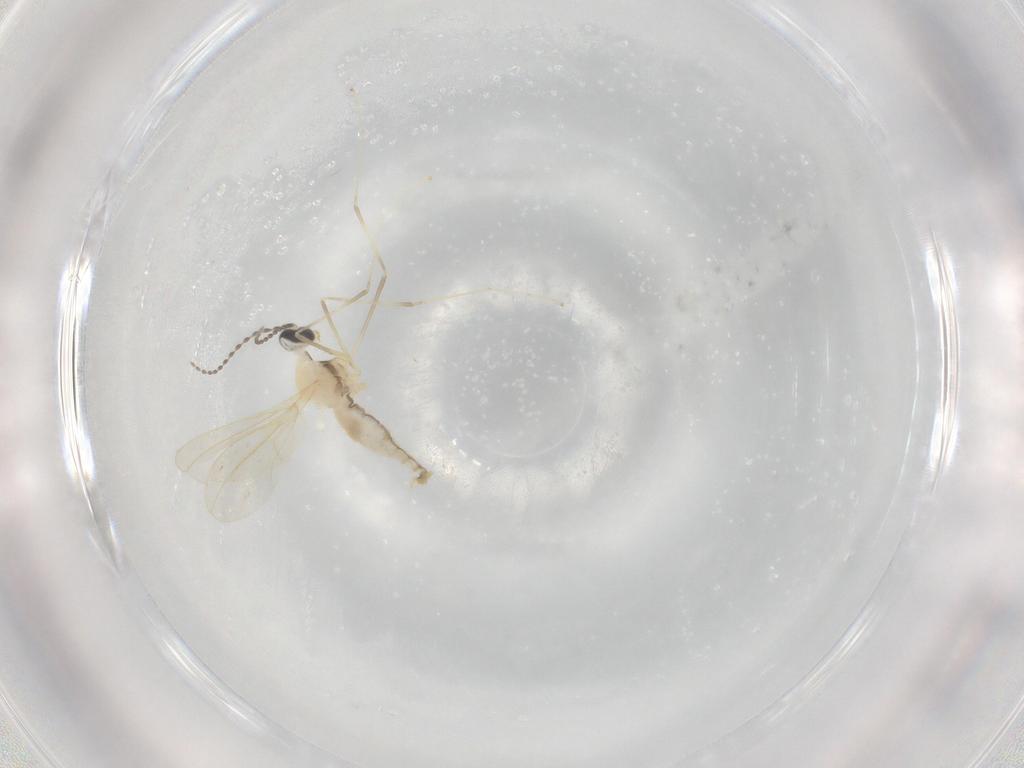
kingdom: Animalia
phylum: Arthropoda
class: Insecta
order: Diptera
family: Cecidomyiidae
